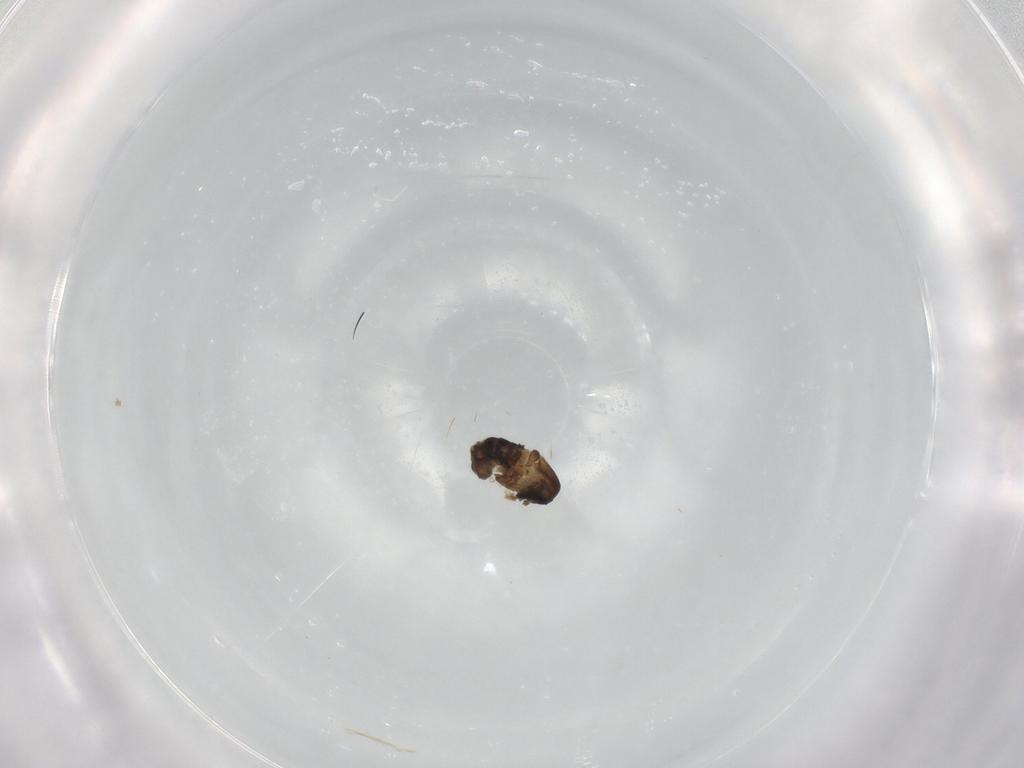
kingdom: Animalia
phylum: Arthropoda
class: Insecta
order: Diptera
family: Psychodidae
